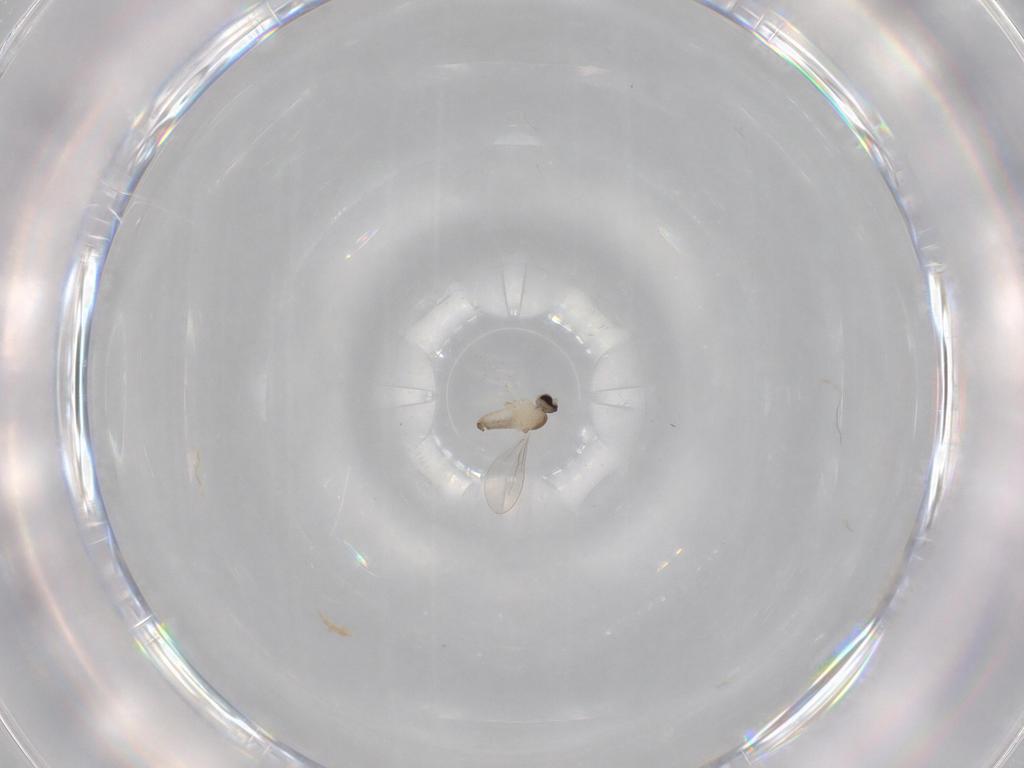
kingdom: Animalia
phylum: Arthropoda
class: Insecta
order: Diptera
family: Cecidomyiidae
